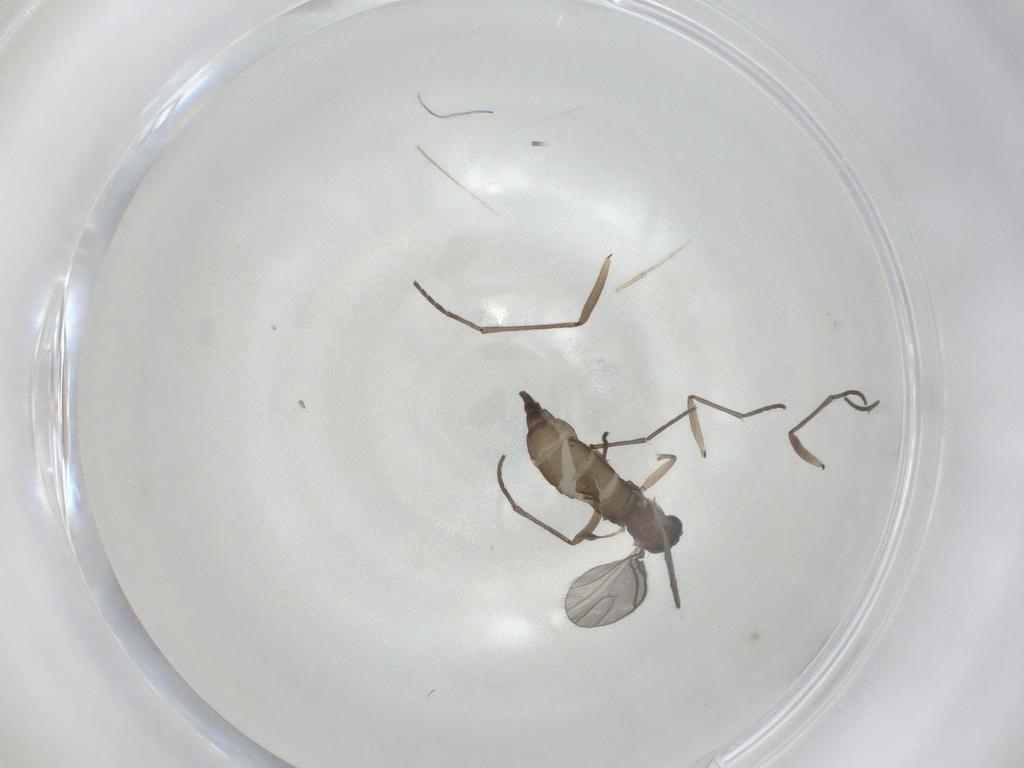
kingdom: Animalia
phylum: Arthropoda
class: Insecta
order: Diptera
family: Sciaridae
